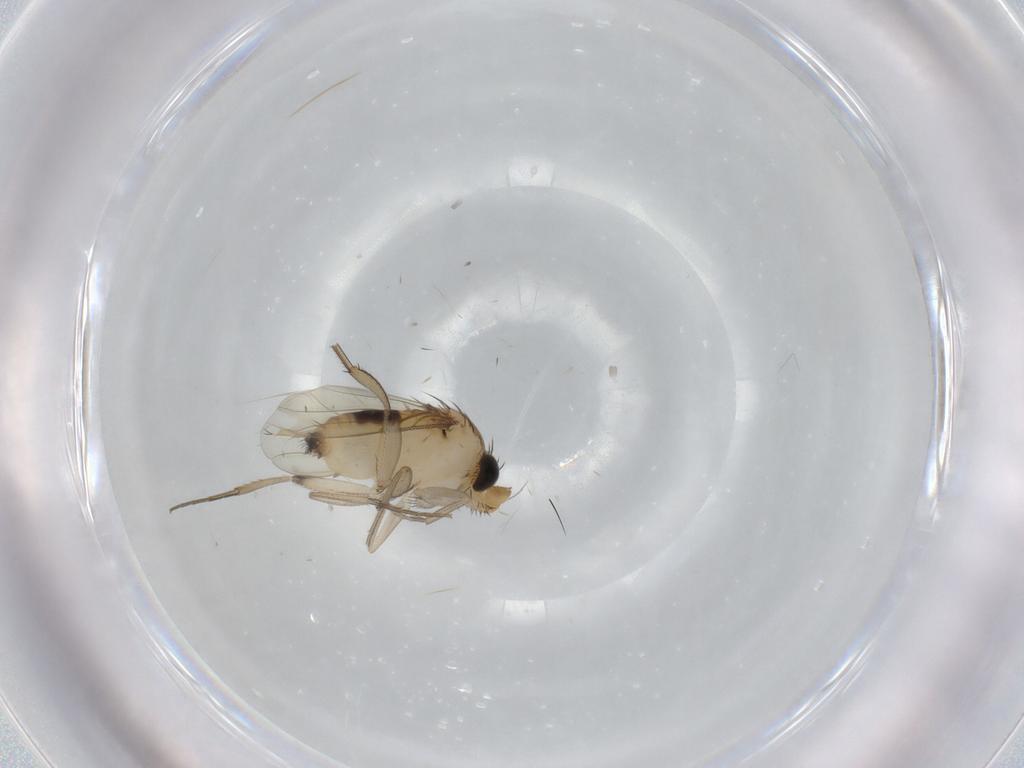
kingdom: Animalia
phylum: Arthropoda
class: Insecta
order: Diptera
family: Phoridae
